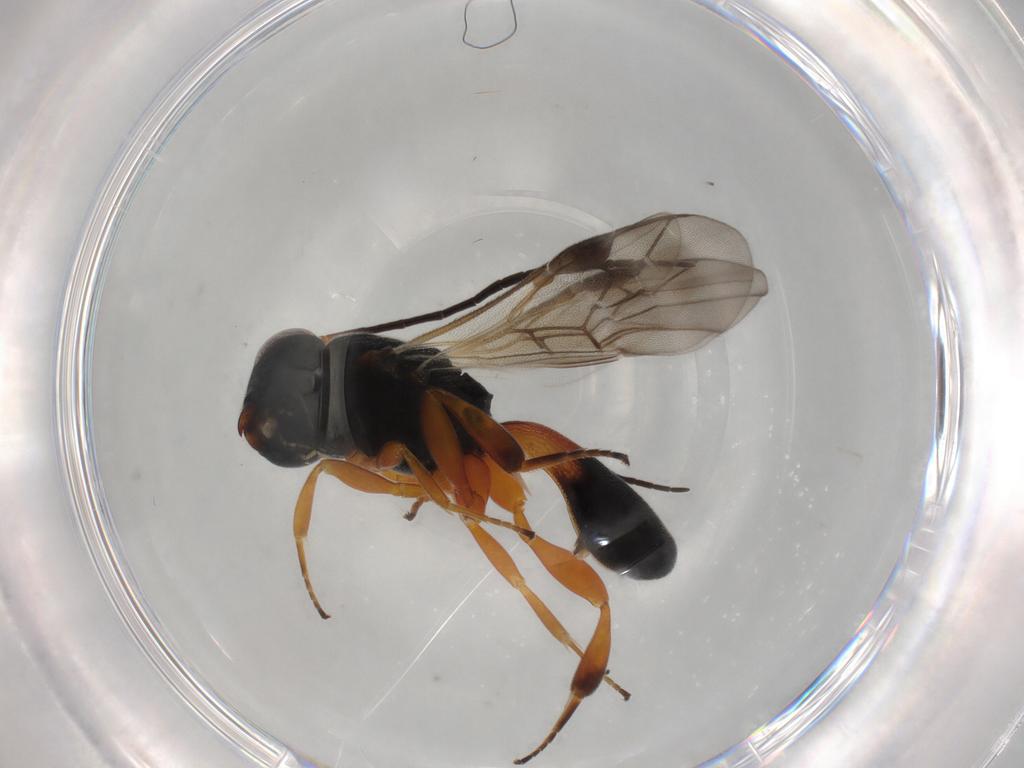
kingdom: Animalia
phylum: Arthropoda
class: Insecta
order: Hymenoptera
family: Braconidae
